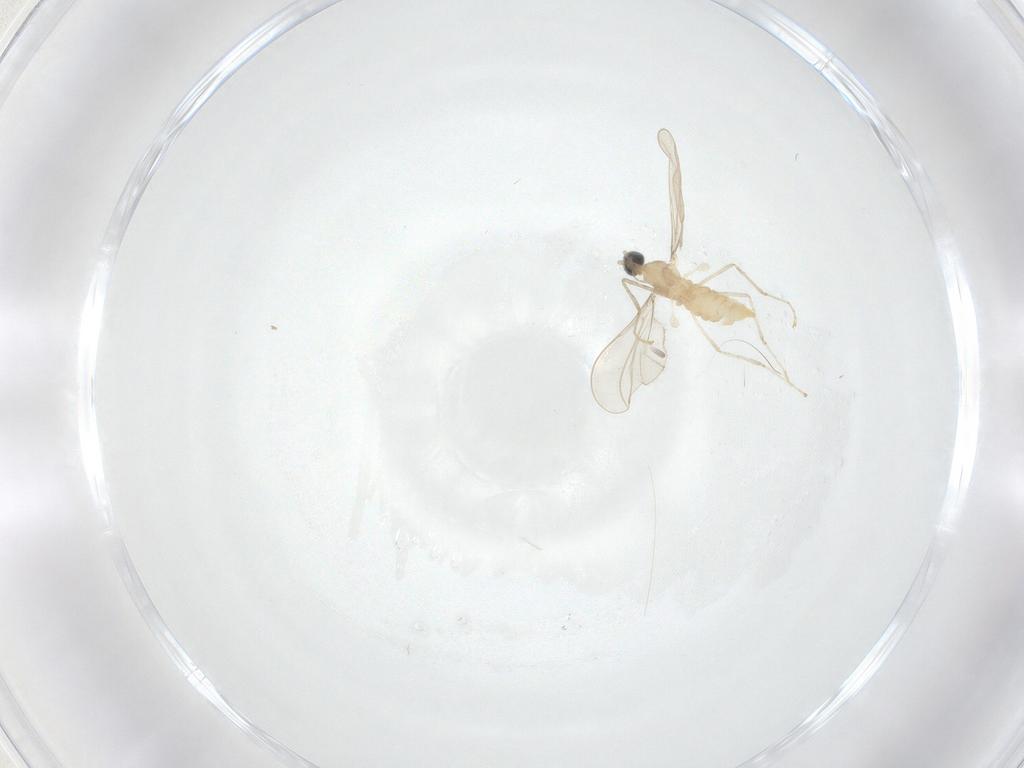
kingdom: Animalia
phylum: Arthropoda
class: Insecta
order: Diptera
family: Cecidomyiidae
